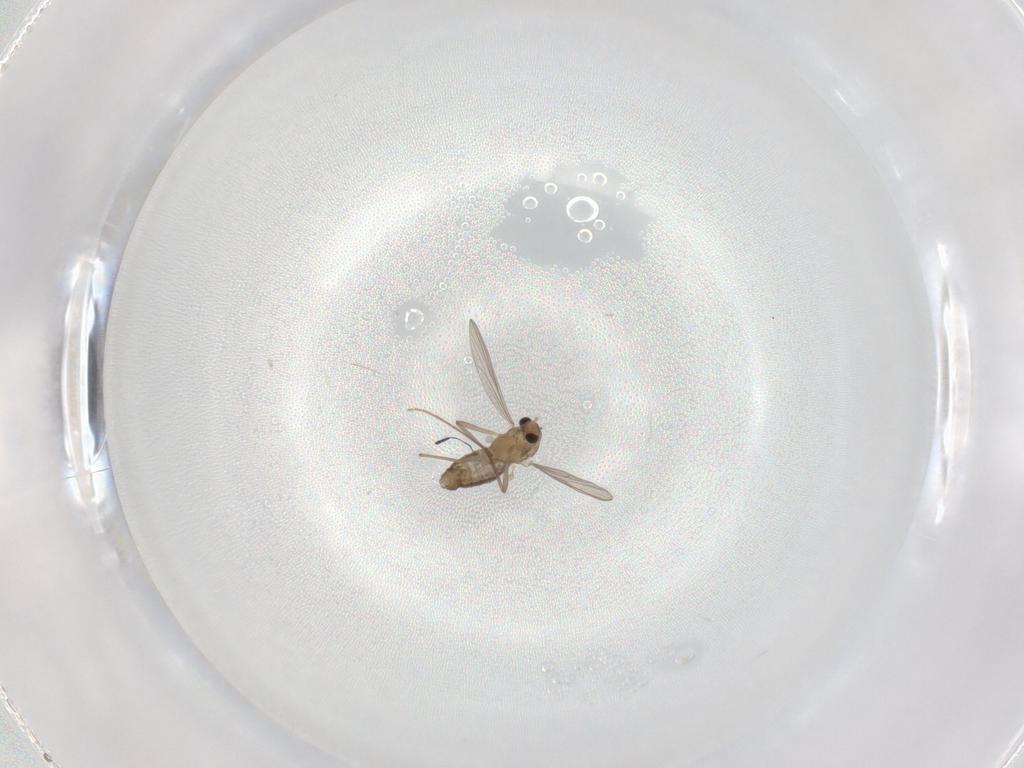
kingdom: Animalia
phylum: Arthropoda
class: Insecta
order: Diptera
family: Chironomidae
